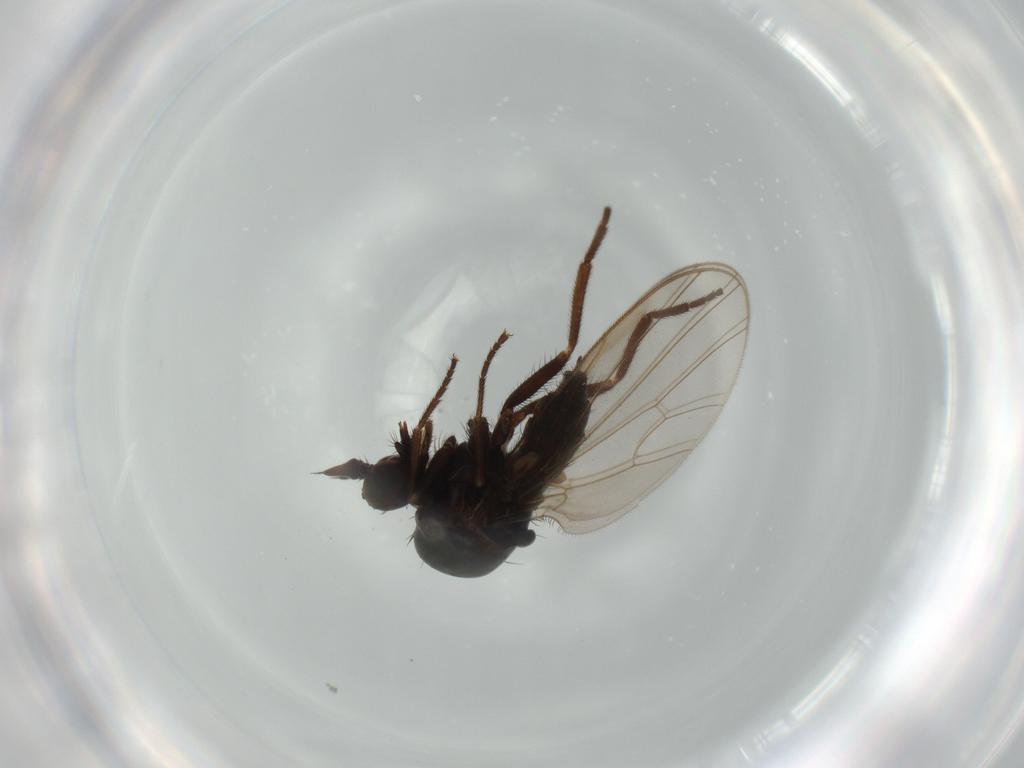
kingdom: Animalia
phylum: Arthropoda
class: Insecta
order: Diptera
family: Dolichopodidae
